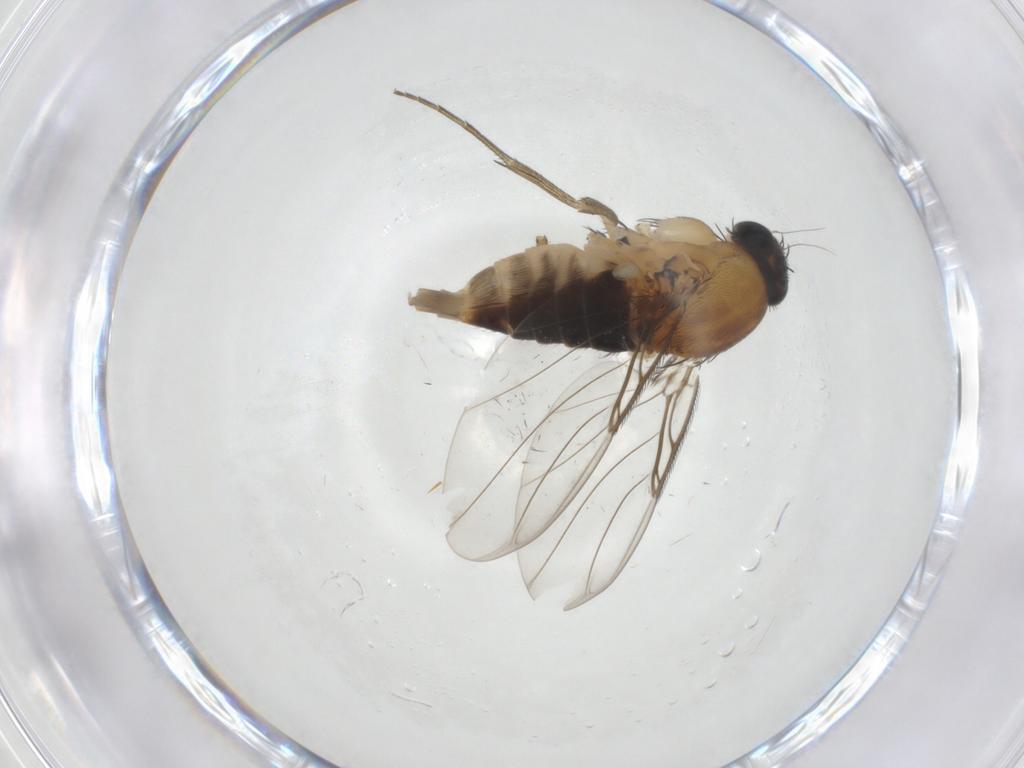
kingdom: Animalia
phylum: Arthropoda
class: Insecta
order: Diptera
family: Phoridae
